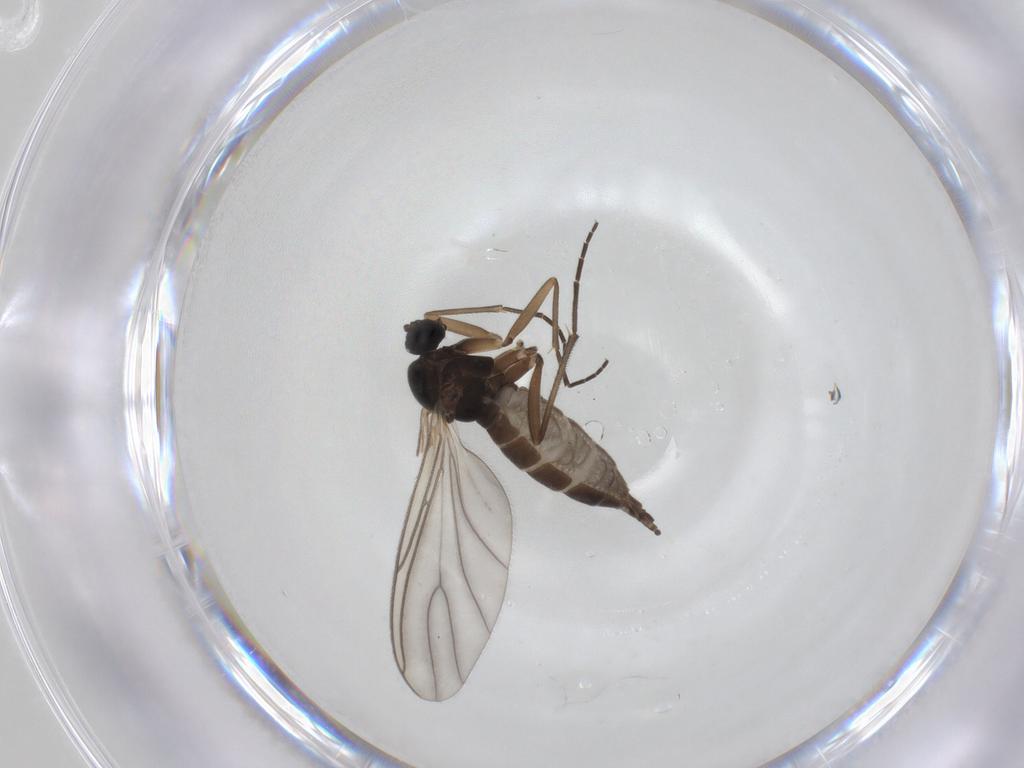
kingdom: Animalia
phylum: Arthropoda
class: Insecta
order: Diptera
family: Sciaridae
